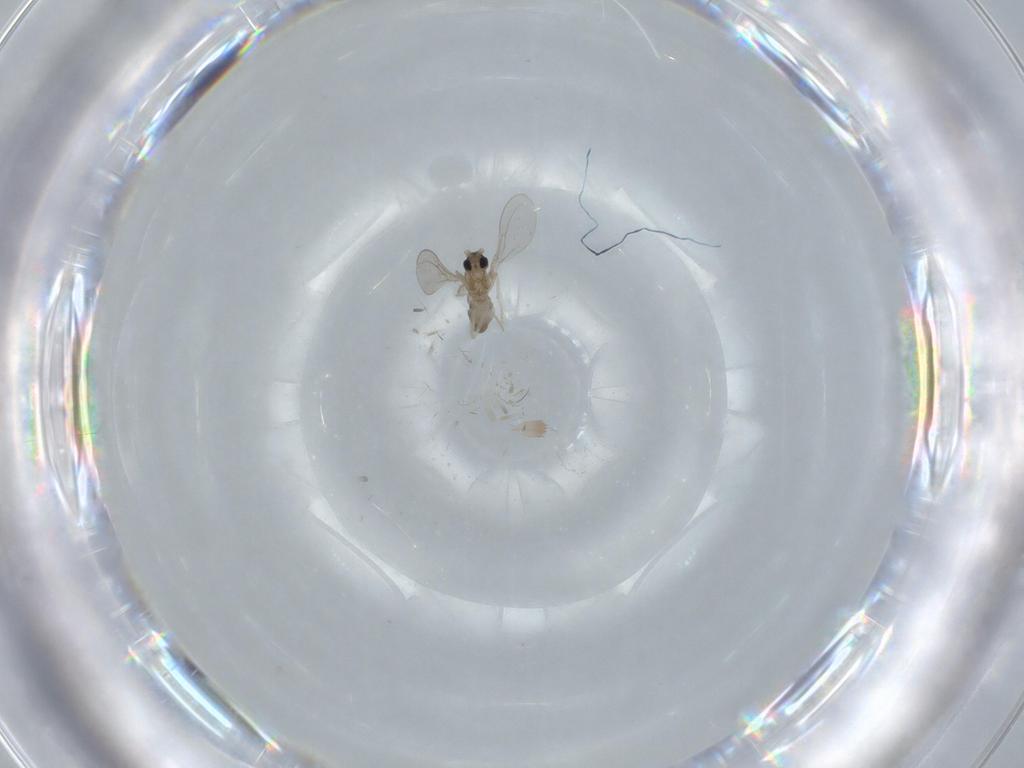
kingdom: Animalia
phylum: Arthropoda
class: Insecta
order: Diptera
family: Cecidomyiidae
